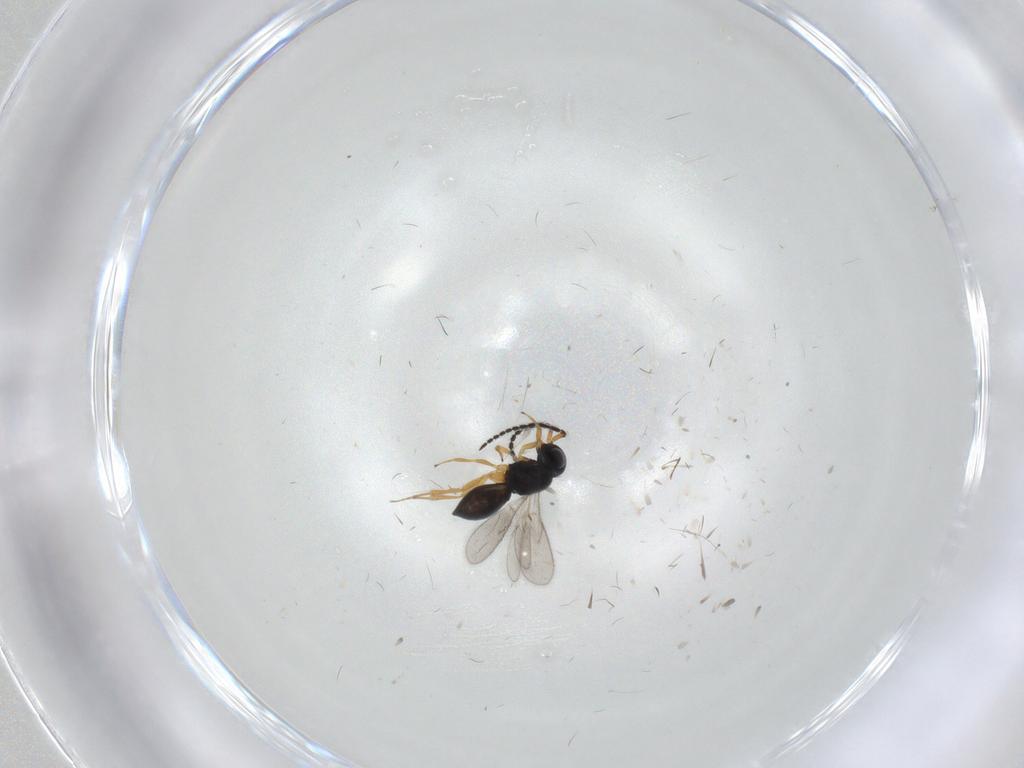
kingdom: Animalia
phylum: Arthropoda
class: Insecta
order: Hymenoptera
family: Scelionidae
